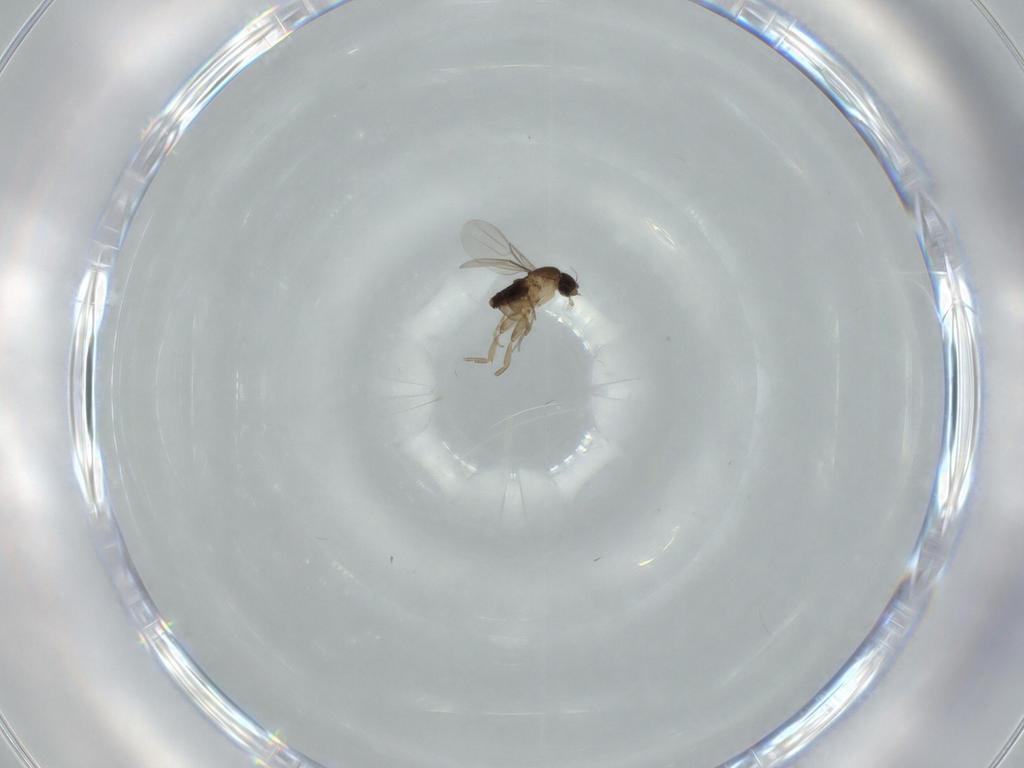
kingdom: Animalia
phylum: Arthropoda
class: Insecta
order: Diptera
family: Phoridae
